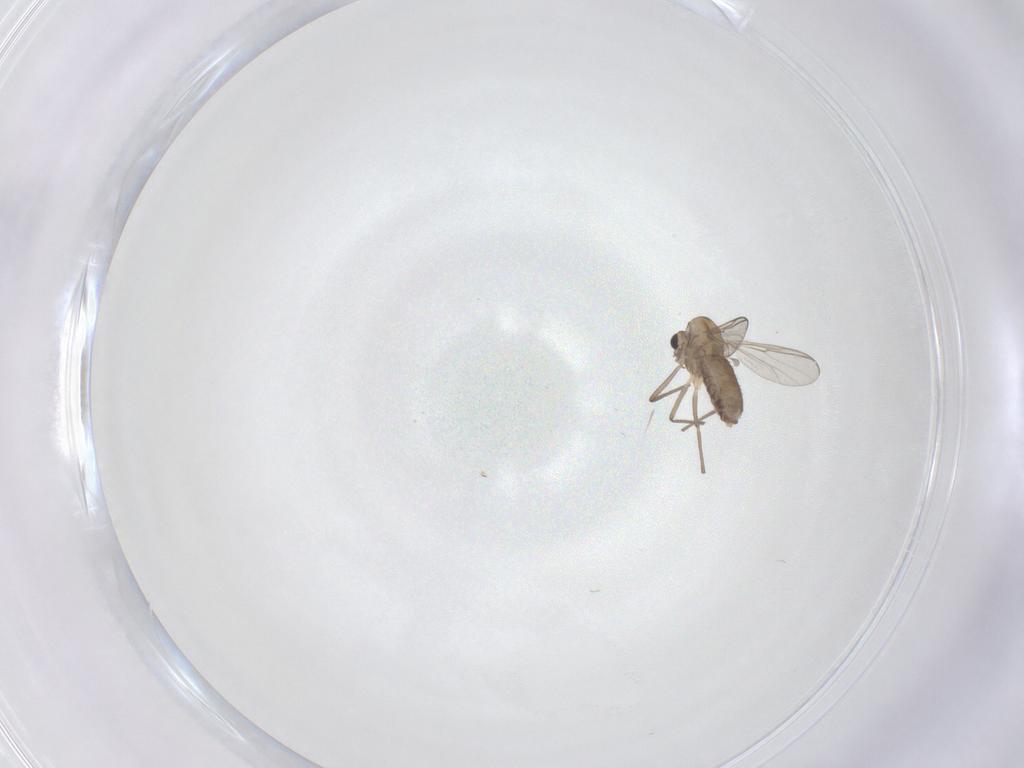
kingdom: Animalia
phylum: Arthropoda
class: Insecta
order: Diptera
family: Chironomidae
